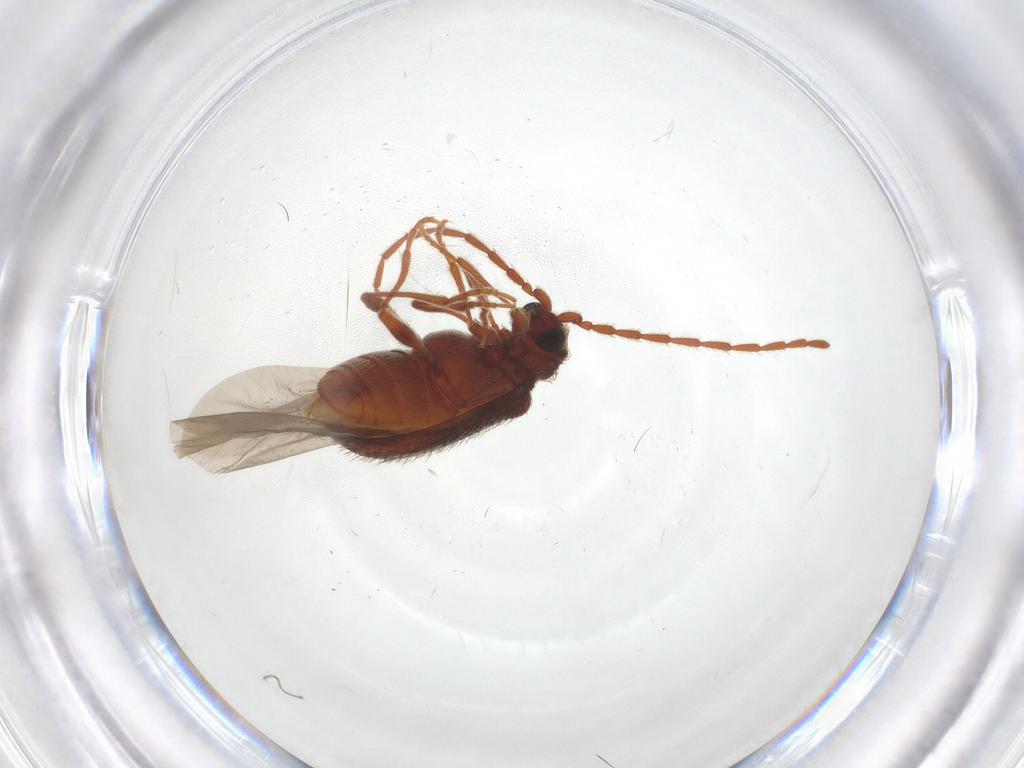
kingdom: Animalia
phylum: Arthropoda
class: Insecta
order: Coleoptera
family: Ptinidae
